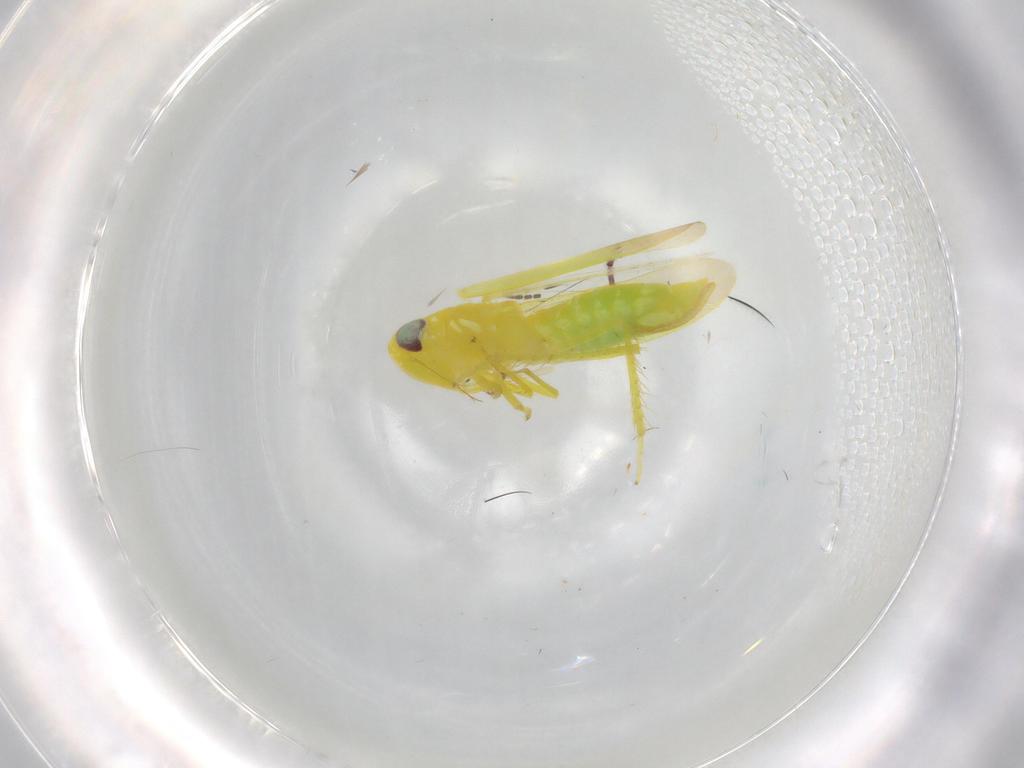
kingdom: Animalia
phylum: Arthropoda
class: Insecta
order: Hemiptera
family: Cicadellidae
